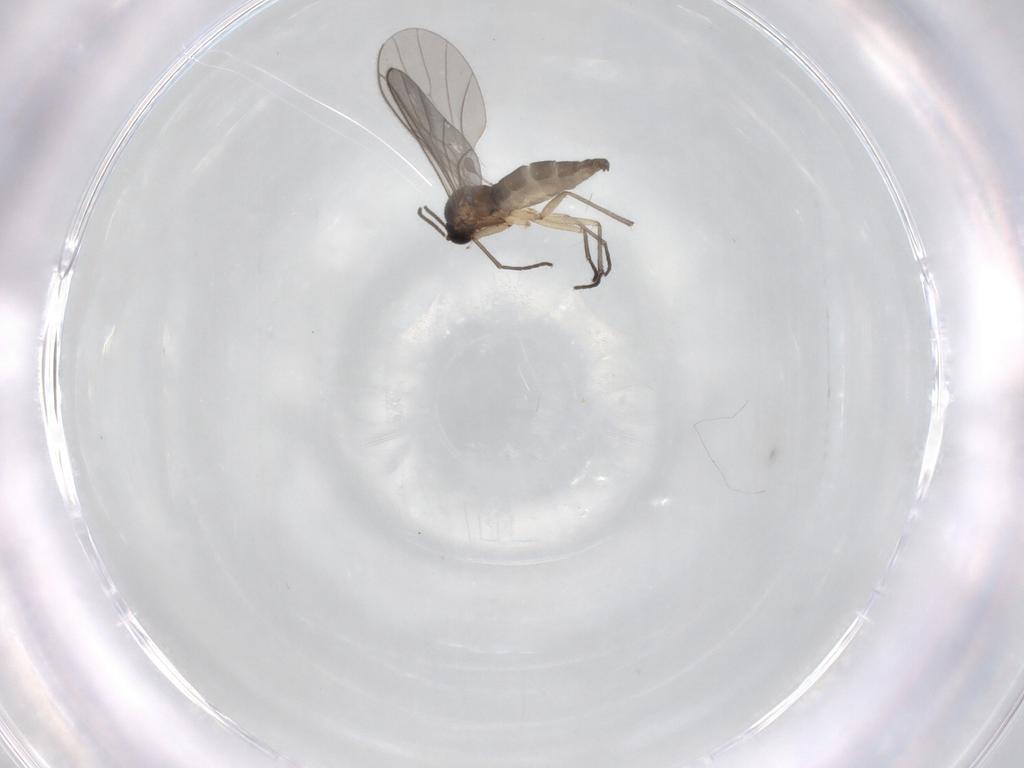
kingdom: Animalia
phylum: Arthropoda
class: Insecta
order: Diptera
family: Sciaridae
